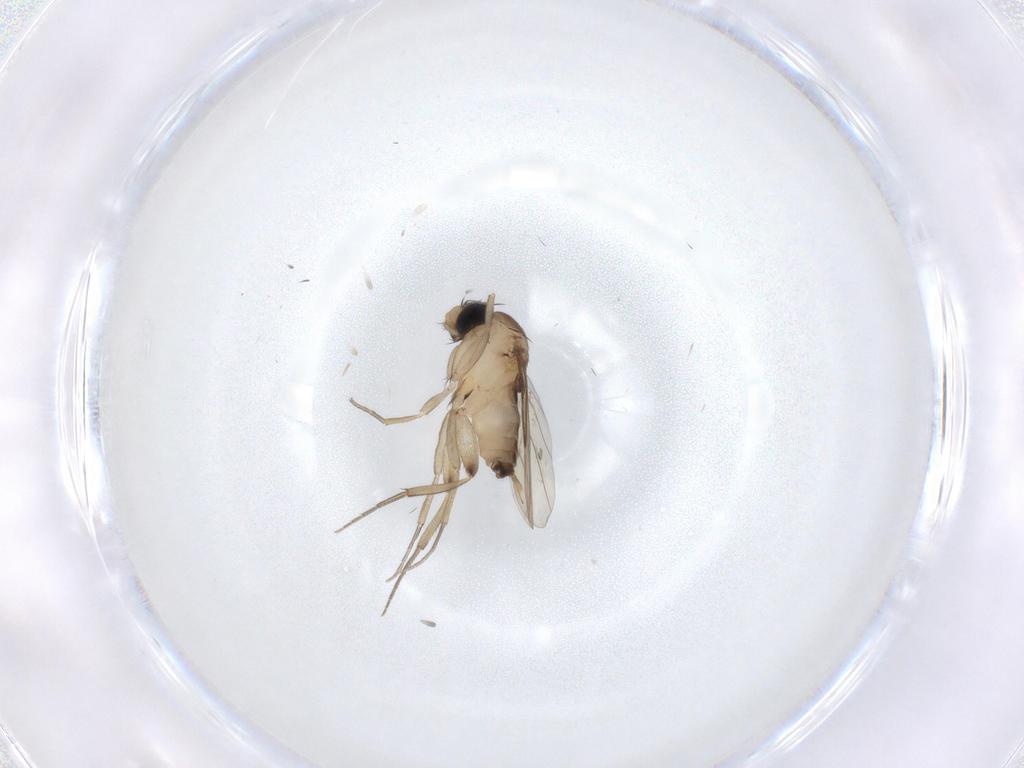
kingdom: Animalia
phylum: Arthropoda
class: Insecta
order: Diptera
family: Phoridae
